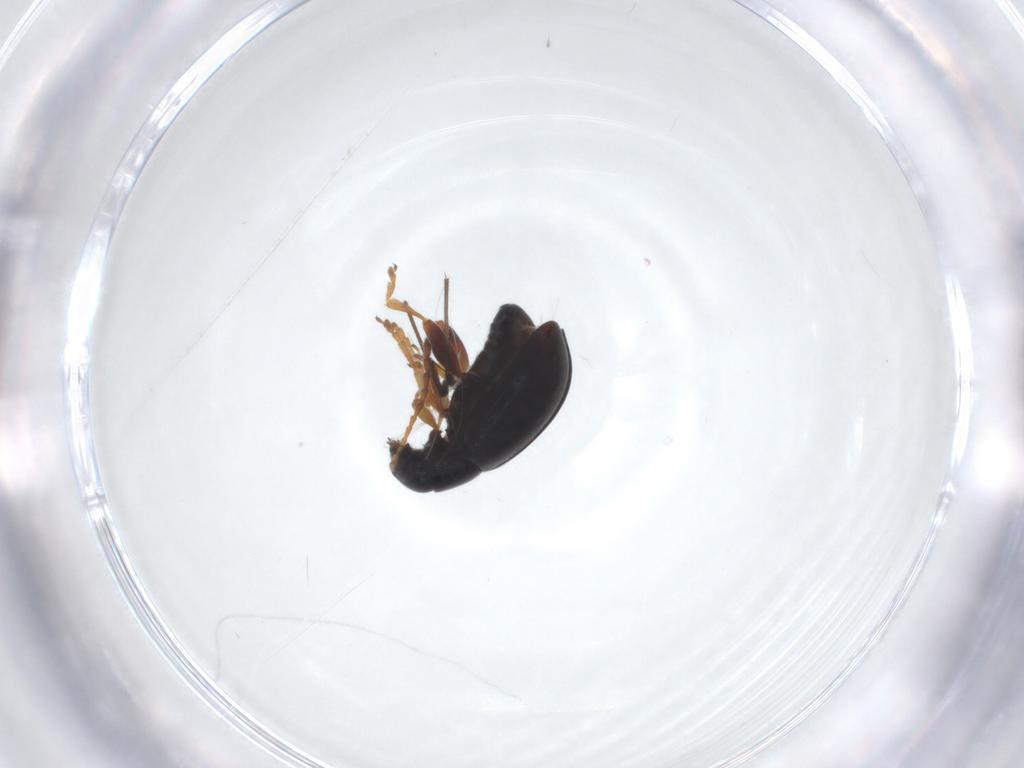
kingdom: Animalia
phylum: Arthropoda
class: Insecta
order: Coleoptera
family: Chrysomelidae
